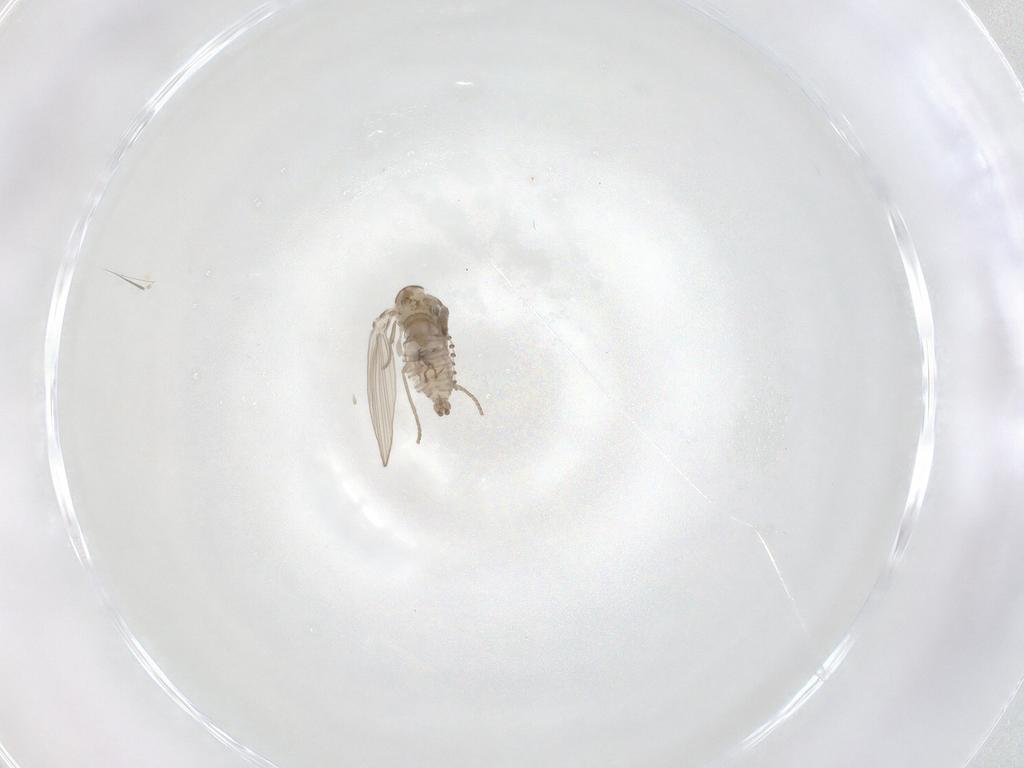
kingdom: Animalia
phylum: Arthropoda
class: Insecta
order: Diptera
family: Psychodidae
